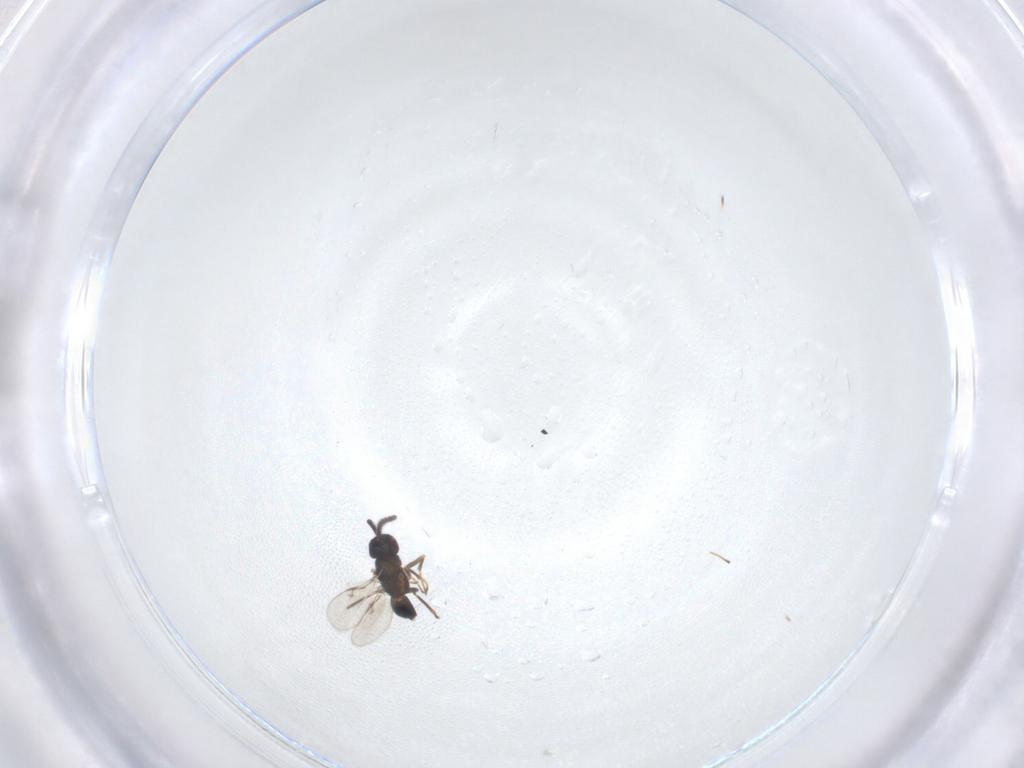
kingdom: Animalia
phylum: Arthropoda
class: Insecta
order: Hymenoptera
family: Encyrtidae
